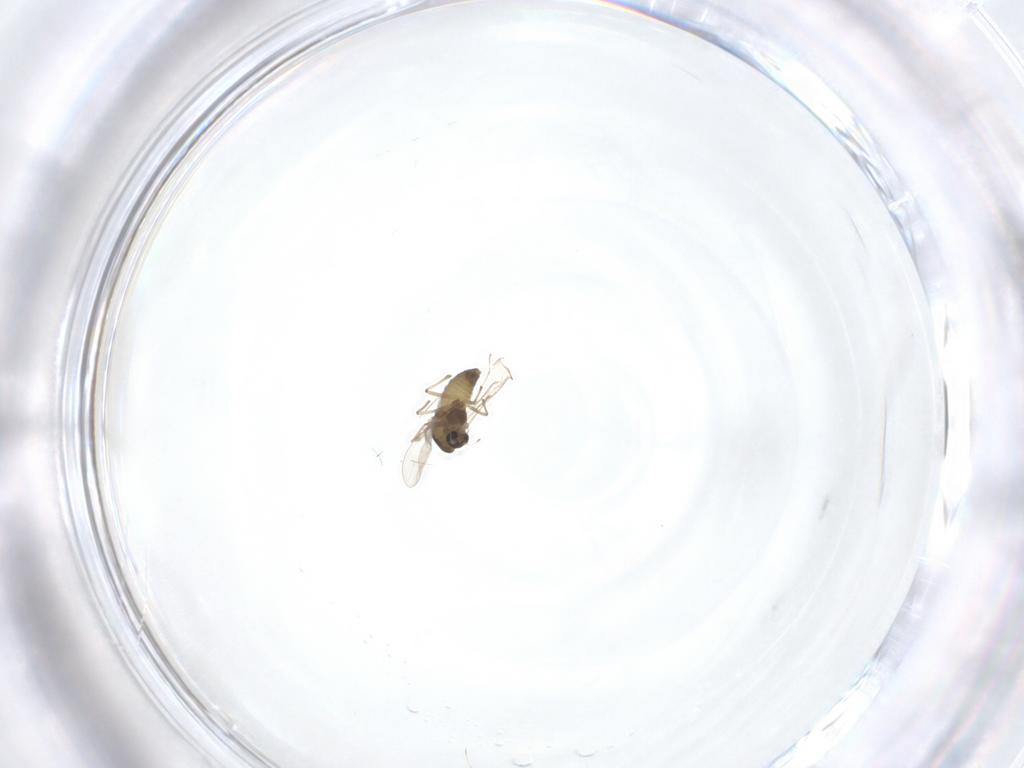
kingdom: Animalia
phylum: Arthropoda
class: Insecta
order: Diptera
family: Chironomidae
